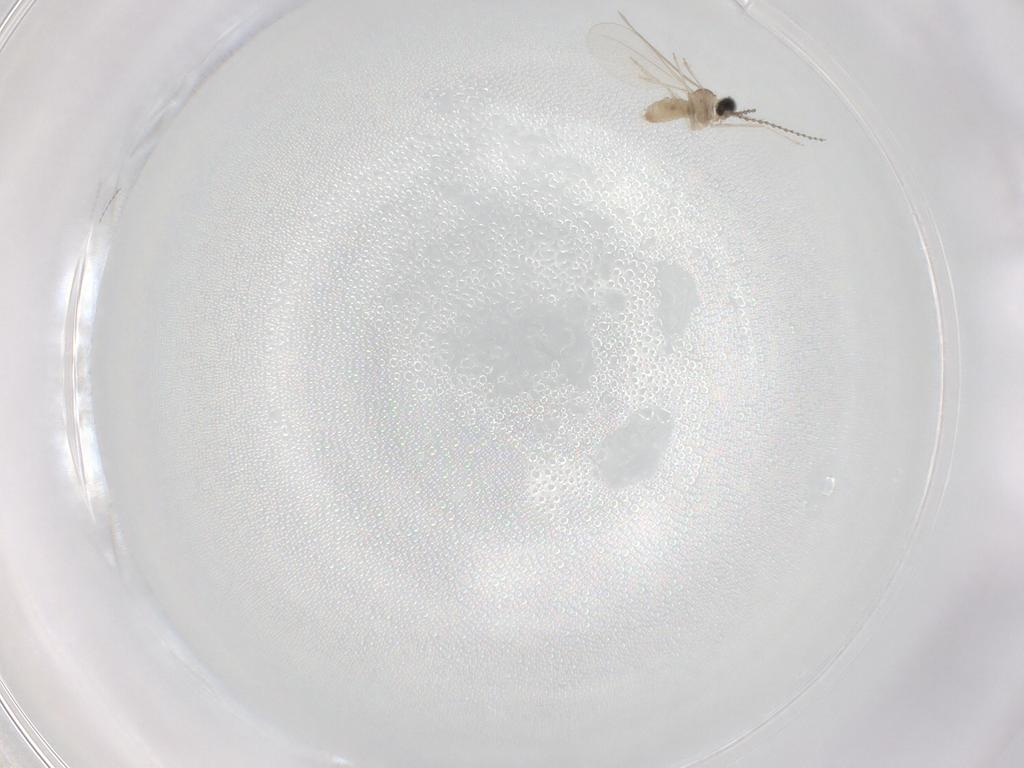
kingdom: Animalia
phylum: Arthropoda
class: Insecta
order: Diptera
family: Cecidomyiidae
